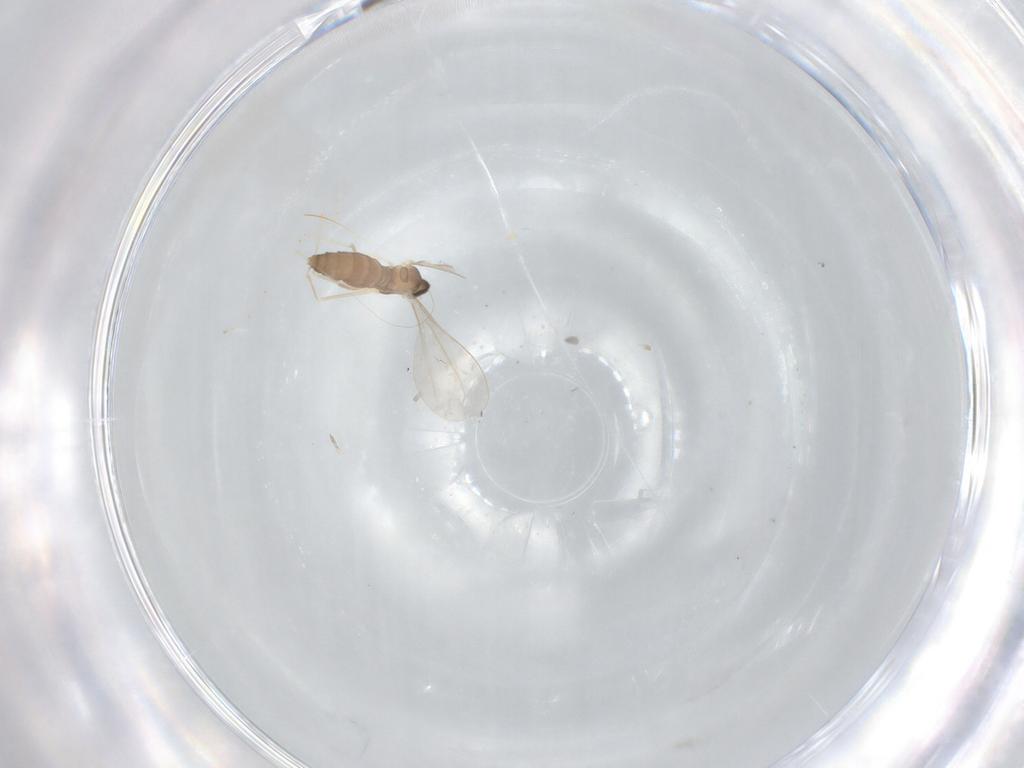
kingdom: Animalia
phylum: Arthropoda
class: Insecta
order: Diptera
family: Cecidomyiidae
